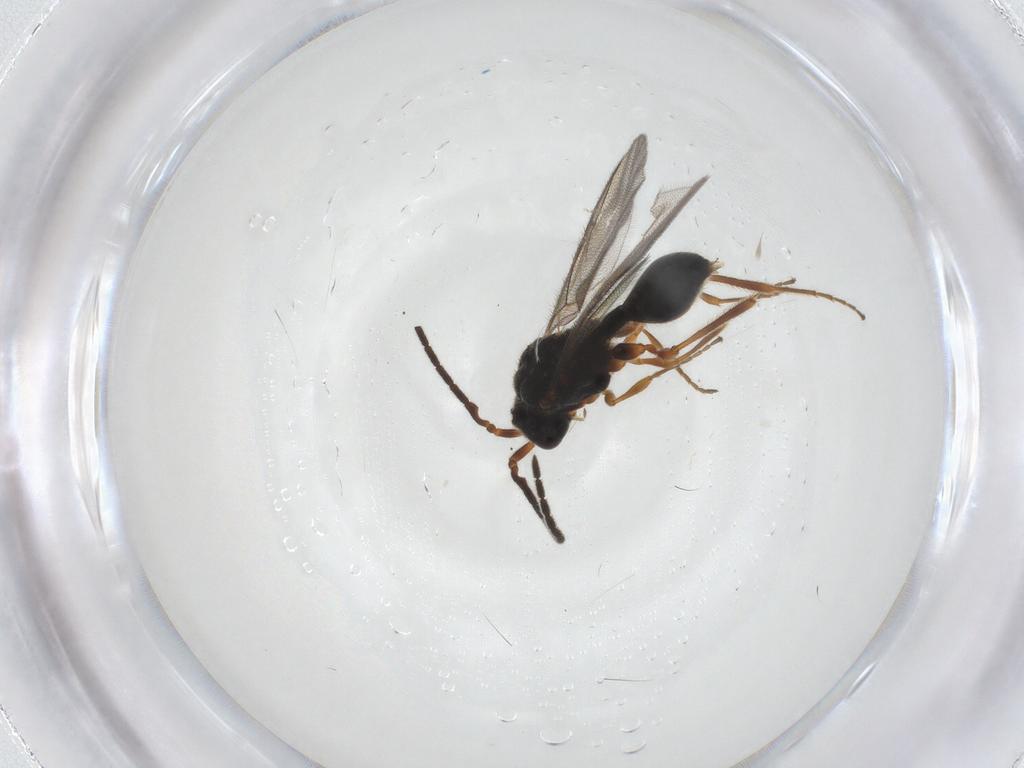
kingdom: Animalia
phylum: Arthropoda
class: Insecta
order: Hymenoptera
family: Diapriidae
